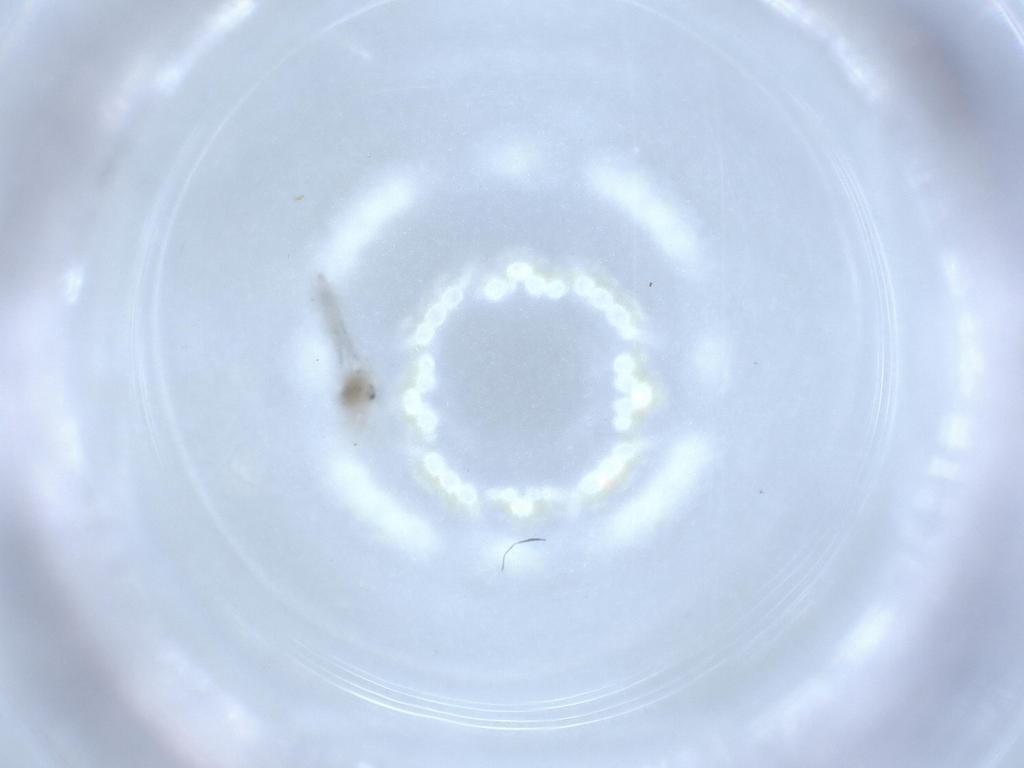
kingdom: Animalia
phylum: Arthropoda
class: Insecta
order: Diptera
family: Cecidomyiidae
